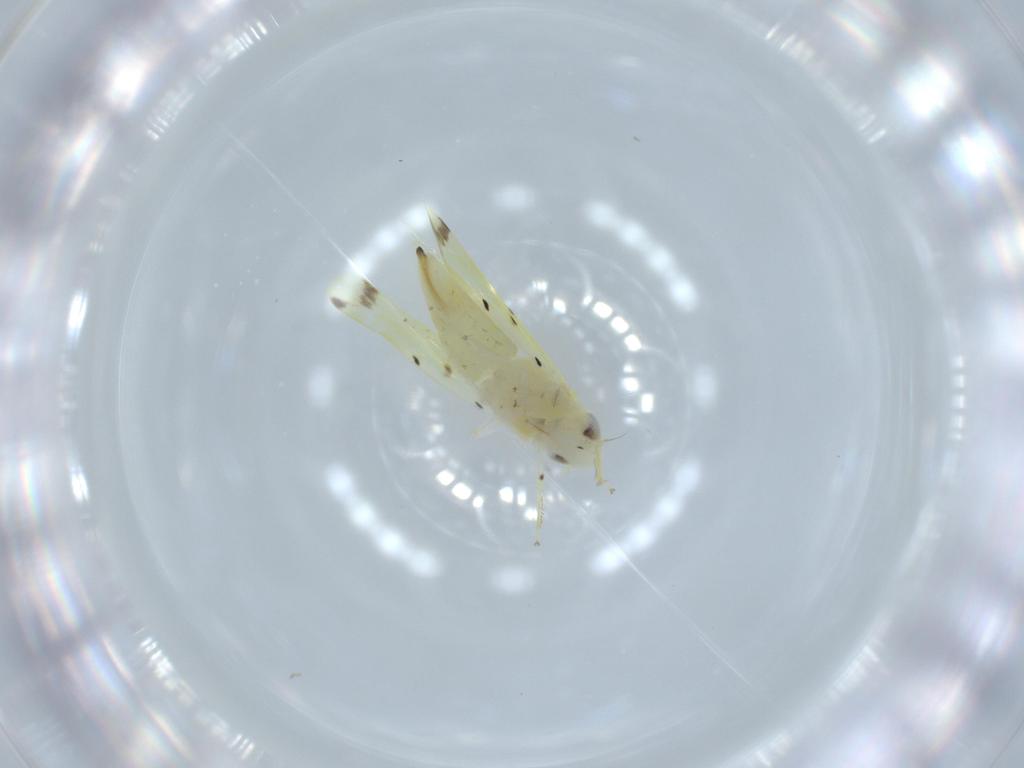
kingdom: Animalia
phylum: Arthropoda
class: Insecta
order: Hemiptera
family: Cicadellidae
